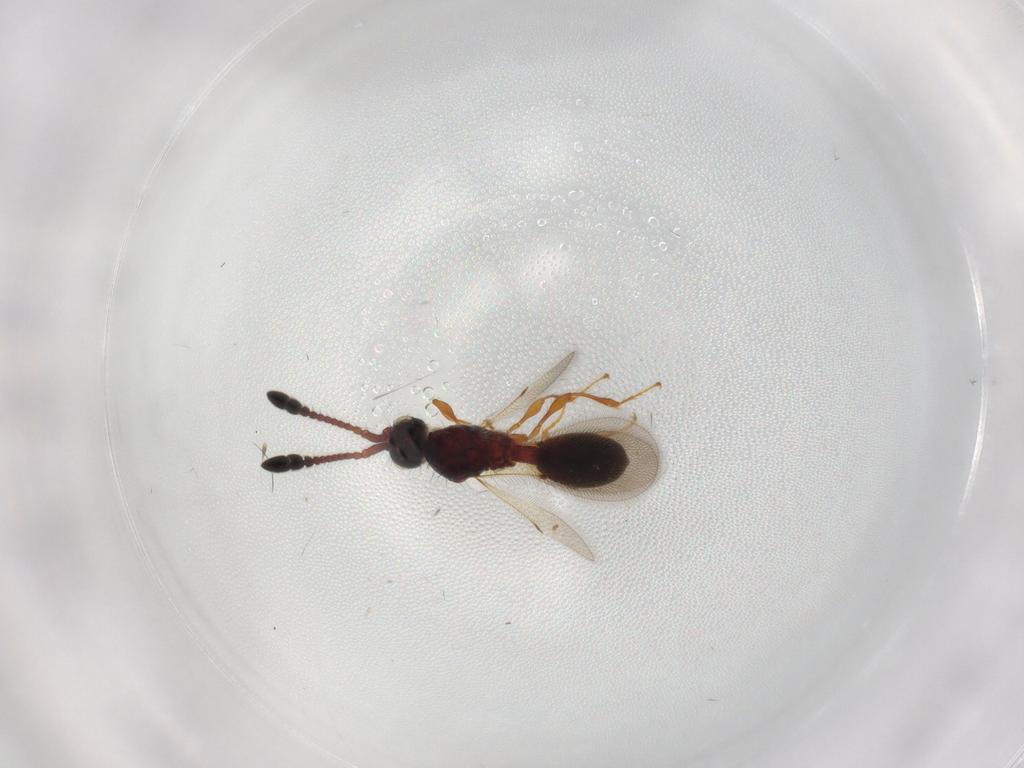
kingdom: Animalia
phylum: Arthropoda
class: Insecta
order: Hymenoptera
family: Diapriidae
